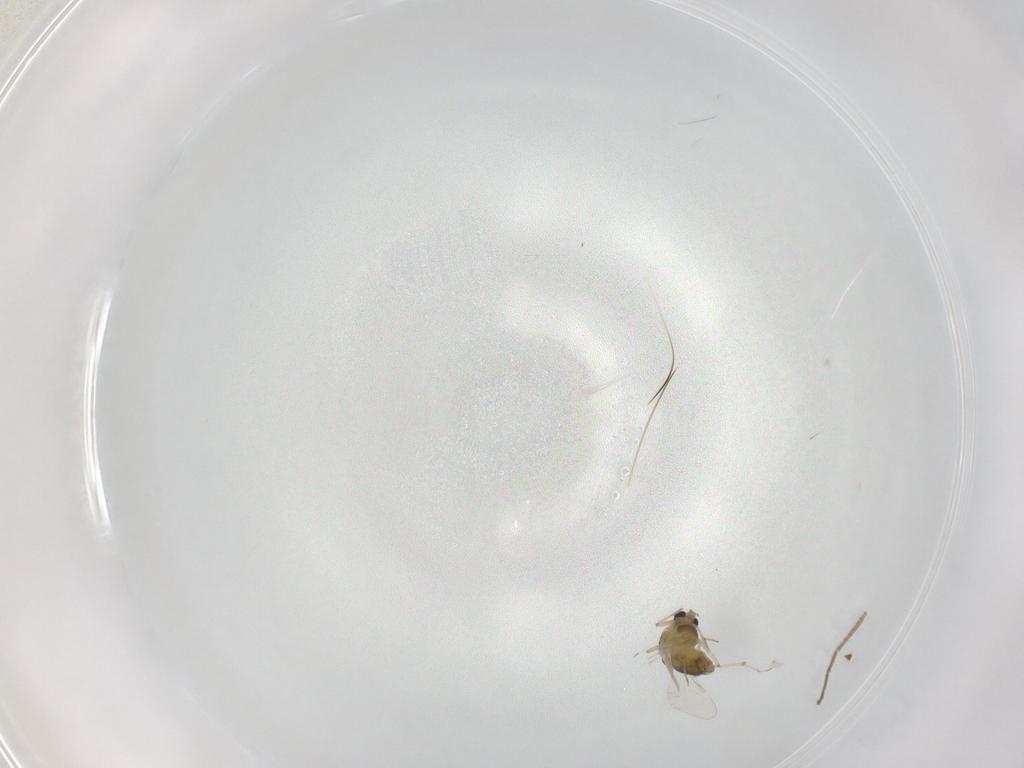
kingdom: Animalia
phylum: Arthropoda
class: Insecta
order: Diptera
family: Chironomidae
